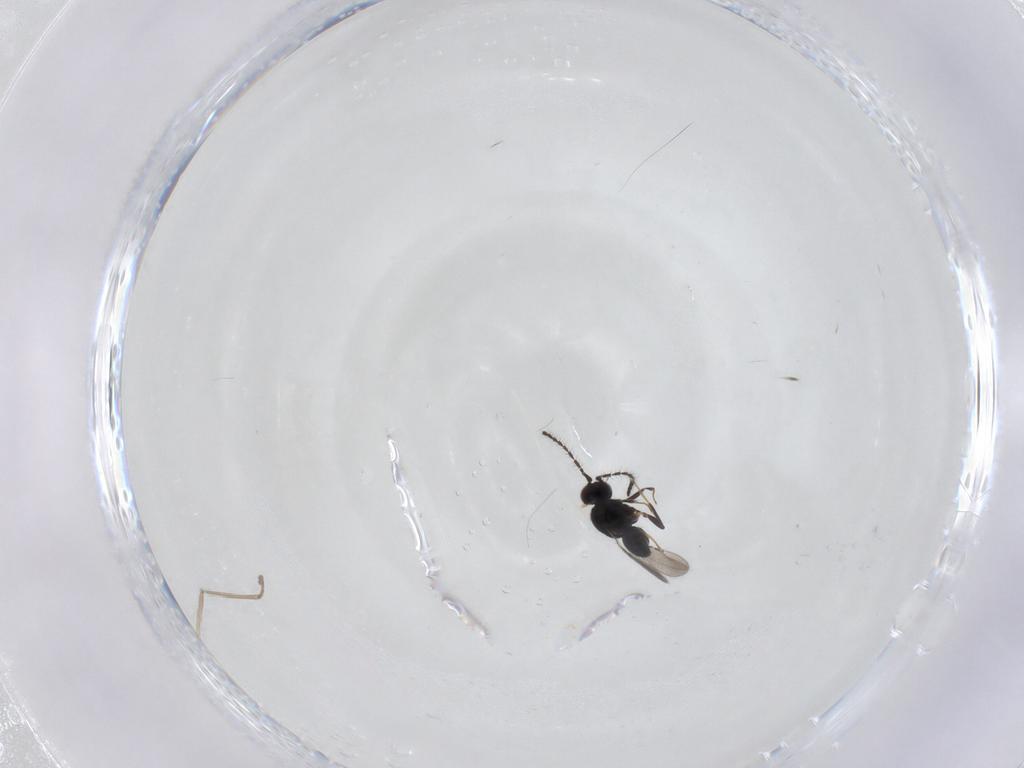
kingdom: Animalia
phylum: Arthropoda
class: Insecta
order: Hymenoptera
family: Ceraphronidae
